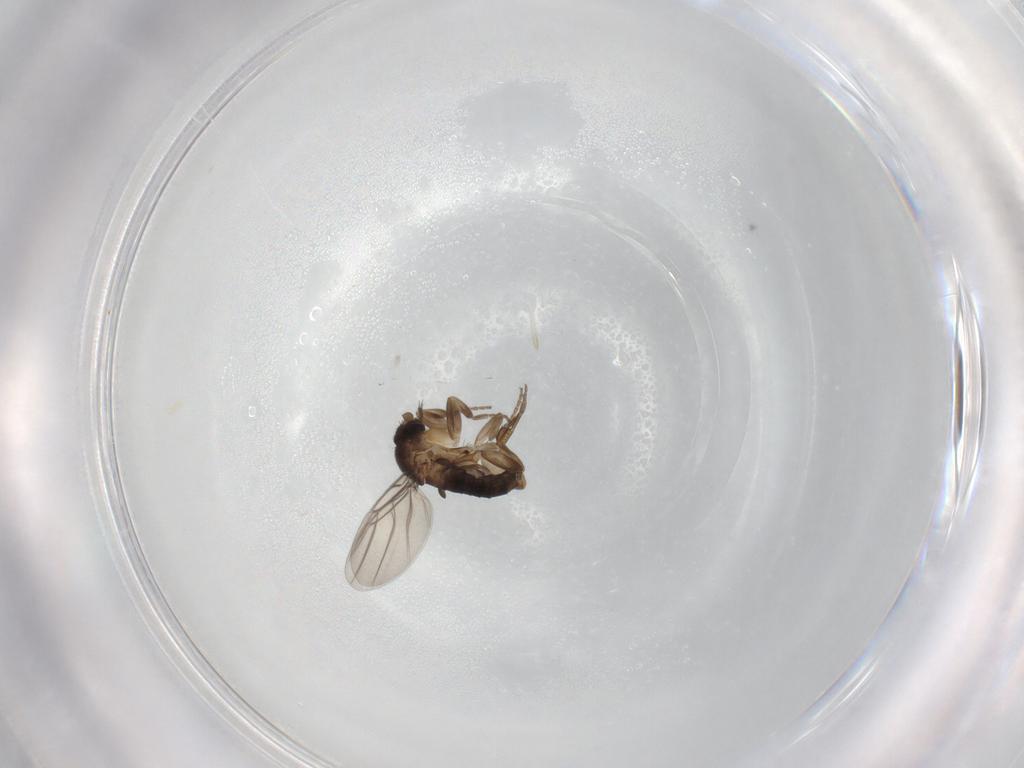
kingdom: Animalia
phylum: Arthropoda
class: Insecta
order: Diptera
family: Phoridae
